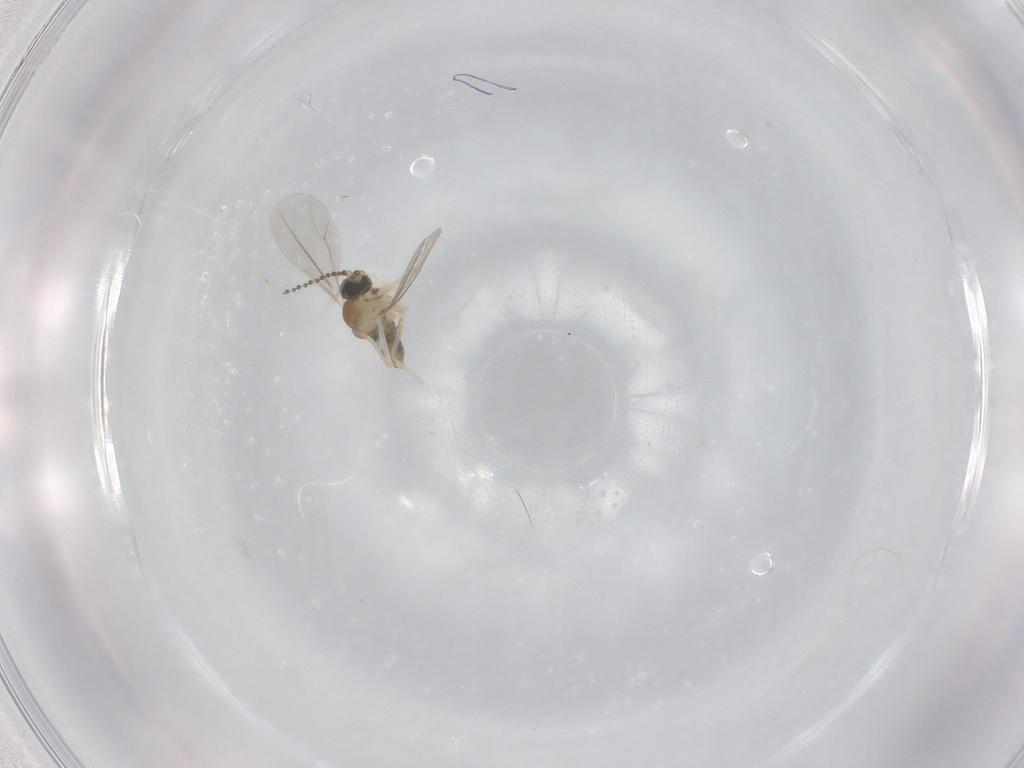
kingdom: Animalia
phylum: Arthropoda
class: Insecta
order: Diptera
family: Cecidomyiidae
